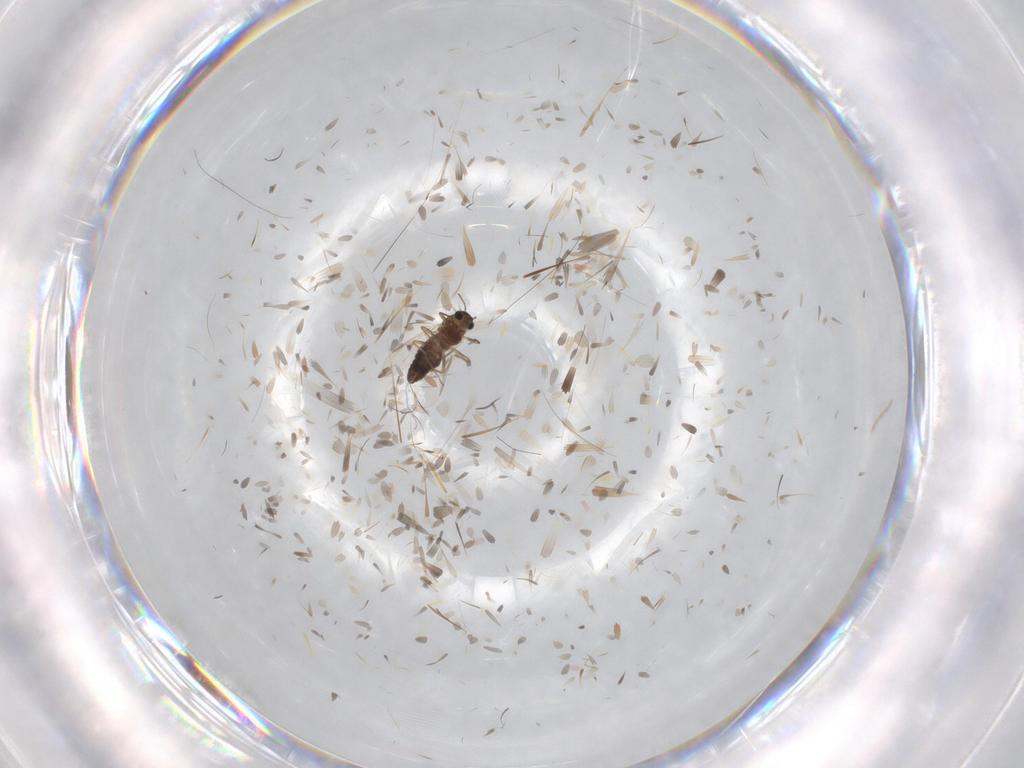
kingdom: Animalia
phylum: Arthropoda
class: Insecta
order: Diptera
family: Chironomidae
